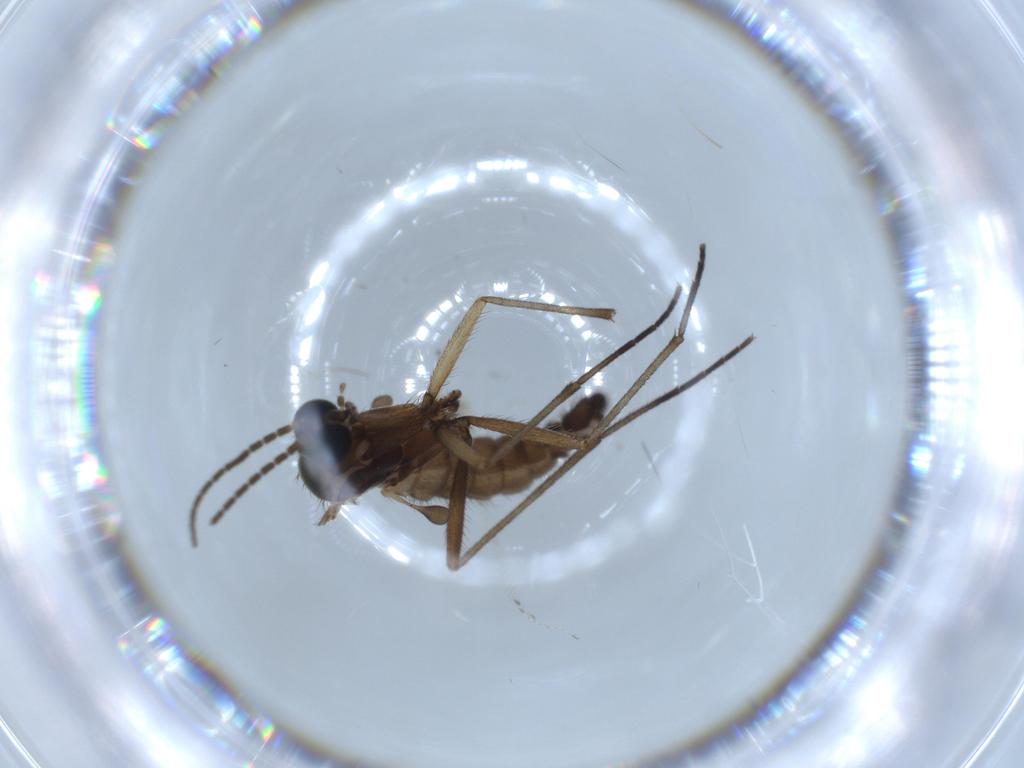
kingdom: Animalia
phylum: Arthropoda
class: Insecta
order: Diptera
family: Sciaridae
